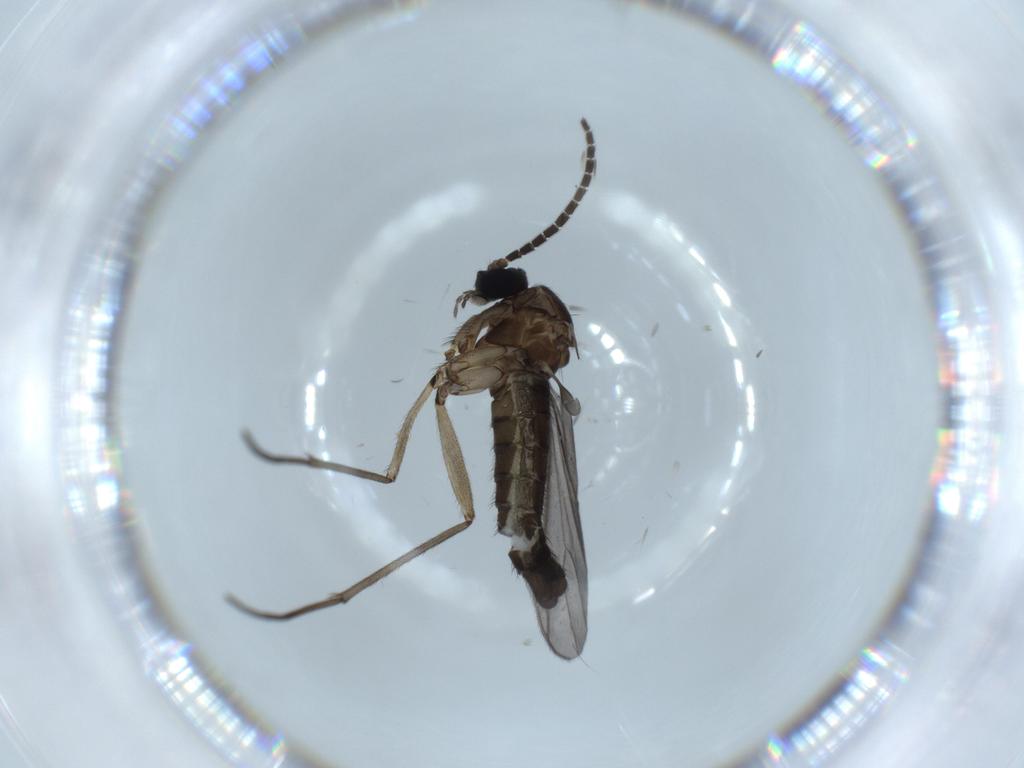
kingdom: Animalia
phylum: Arthropoda
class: Insecta
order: Diptera
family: Sciaridae
